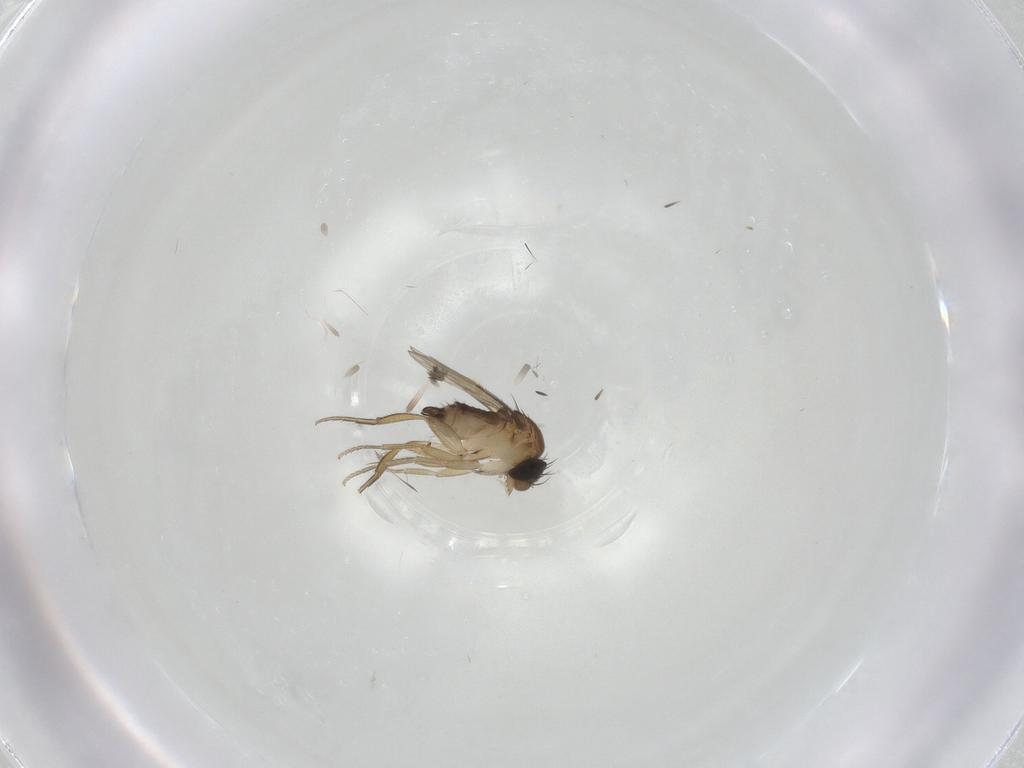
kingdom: Animalia
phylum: Arthropoda
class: Insecta
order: Diptera
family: Cecidomyiidae
